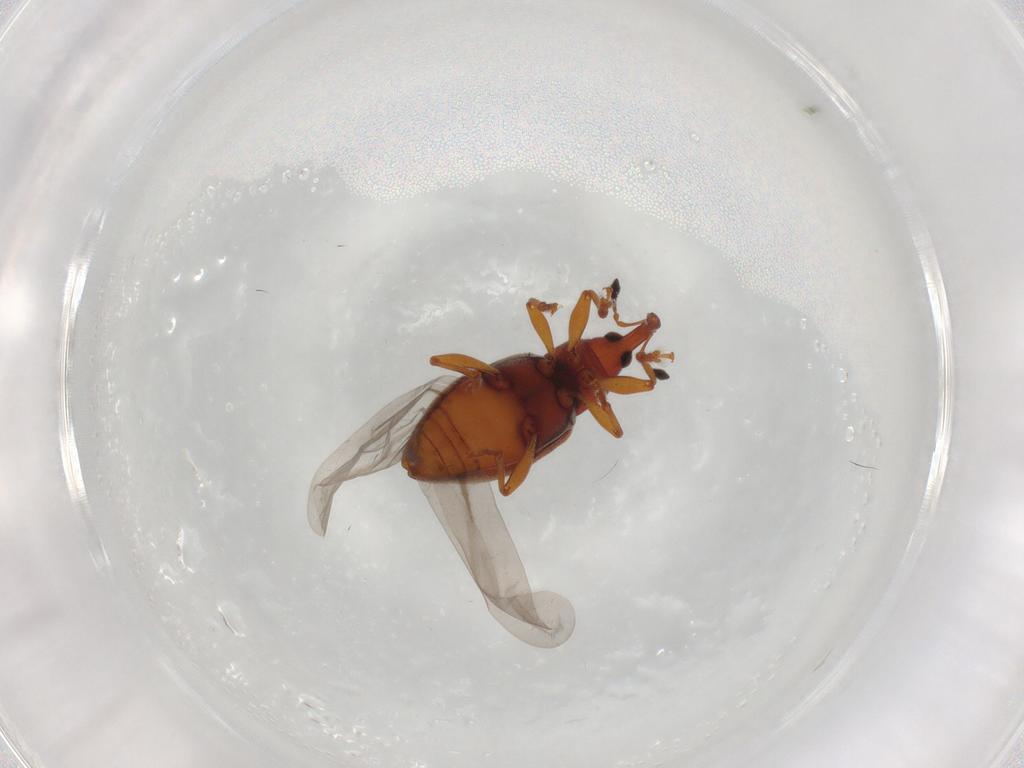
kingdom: Animalia
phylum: Arthropoda
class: Insecta
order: Coleoptera
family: Curculionidae
